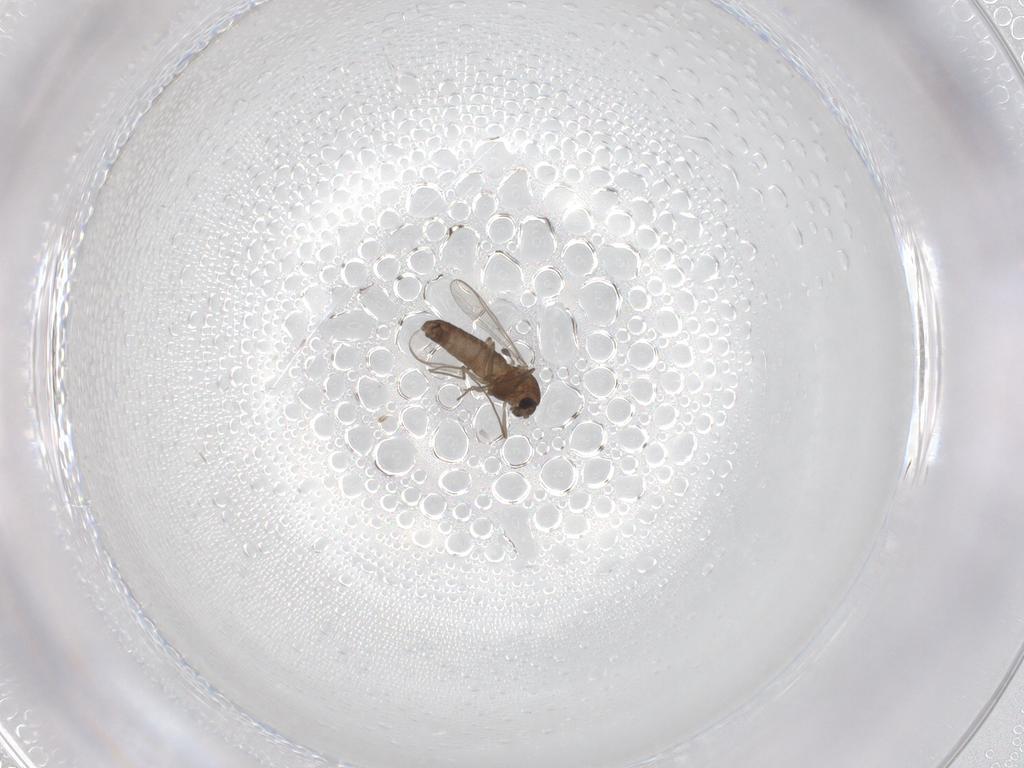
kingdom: Animalia
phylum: Arthropoda
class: Insecta
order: Diptera
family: Chironomidae
